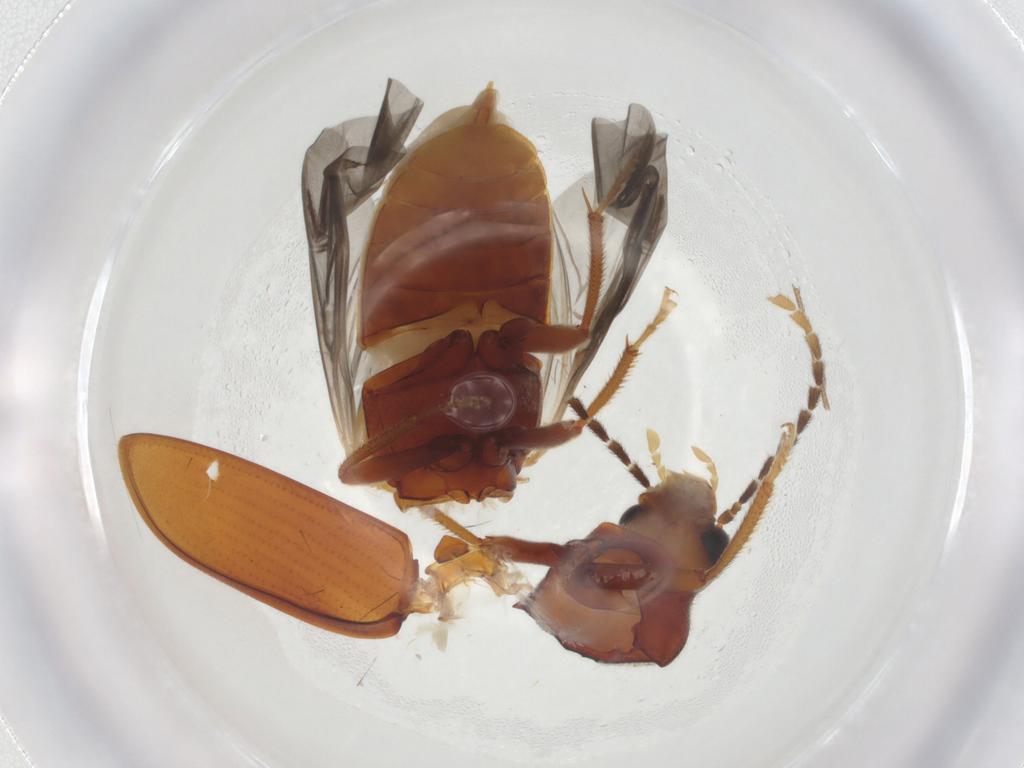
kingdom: Animalia
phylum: Arthropoda
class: Insecta
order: Coleoptera
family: Ptilodactylidae
